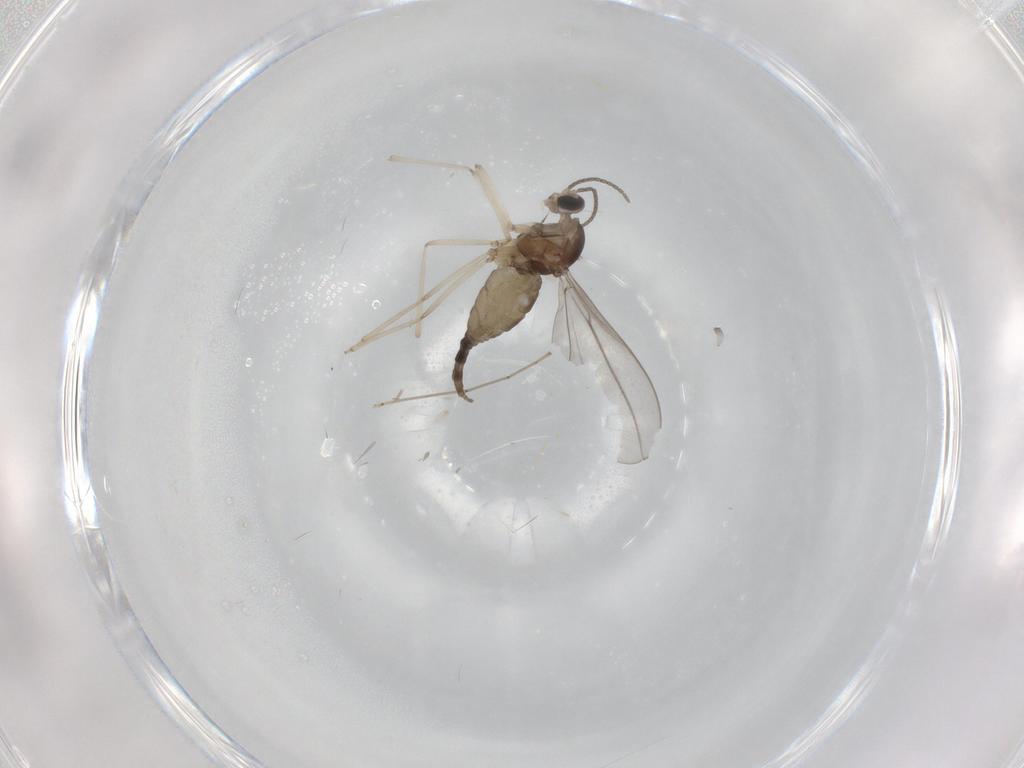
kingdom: Animalia
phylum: Arthropoda
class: Insecta
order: Diptera
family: Cecidomyiidae
